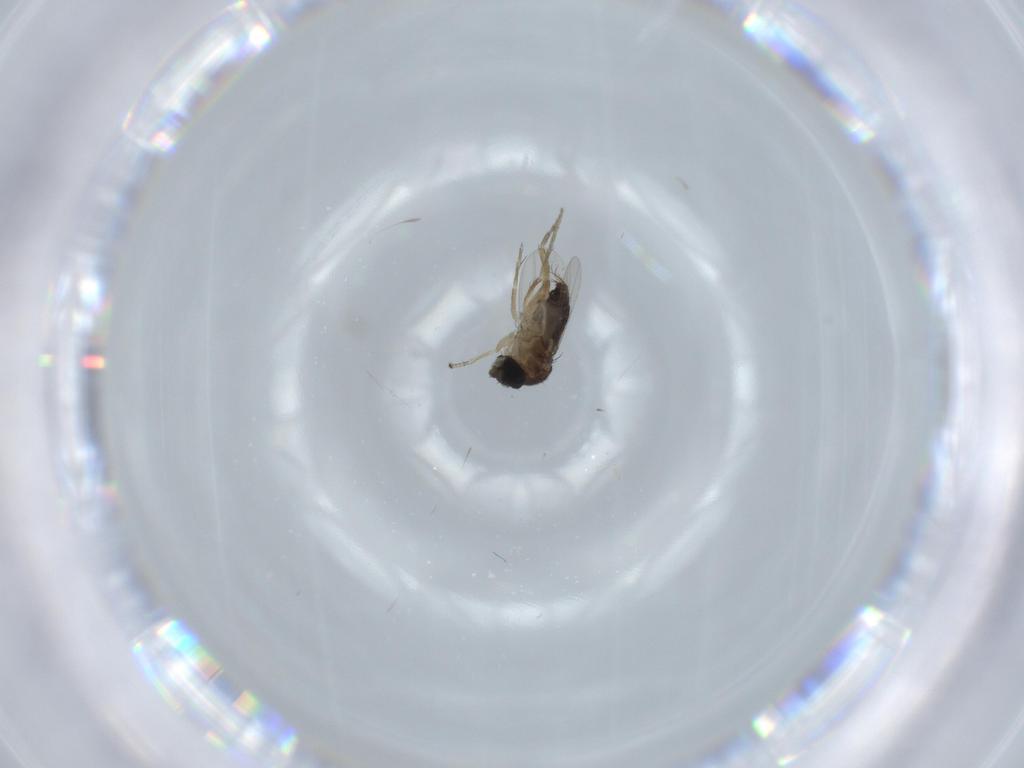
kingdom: Animalia
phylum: Arthropoda
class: Insecta
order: Diptera
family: Phoridae
